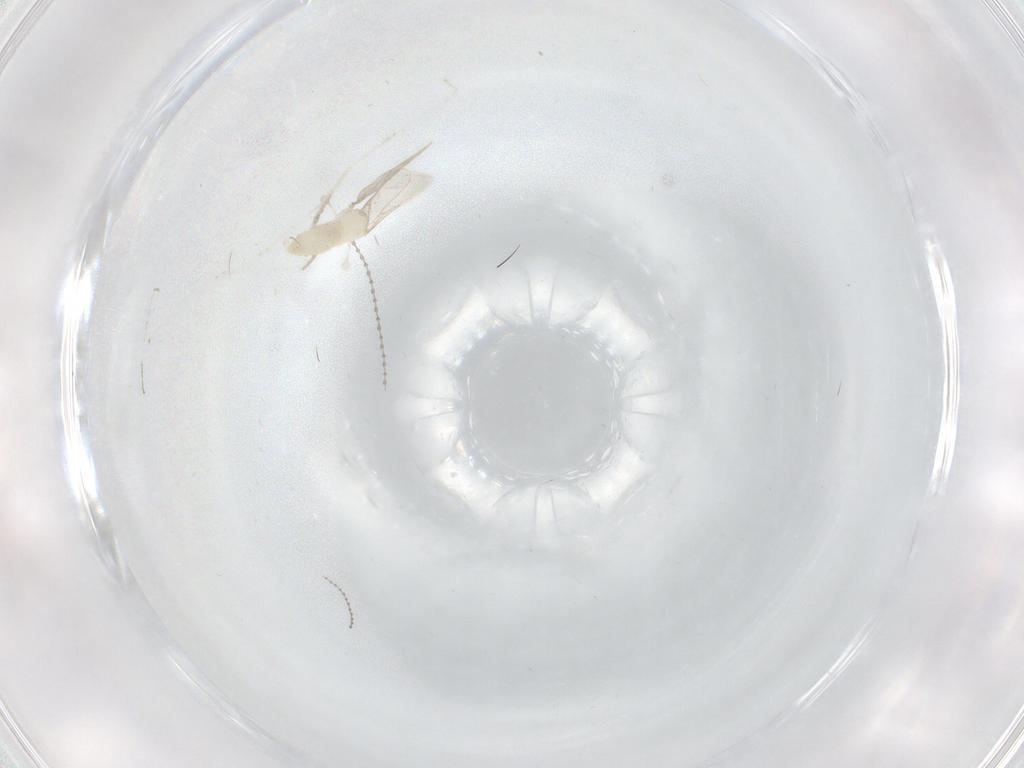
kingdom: Animalia
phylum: Arthropoda
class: Insecta
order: Diptera
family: Cecidomyiidae
